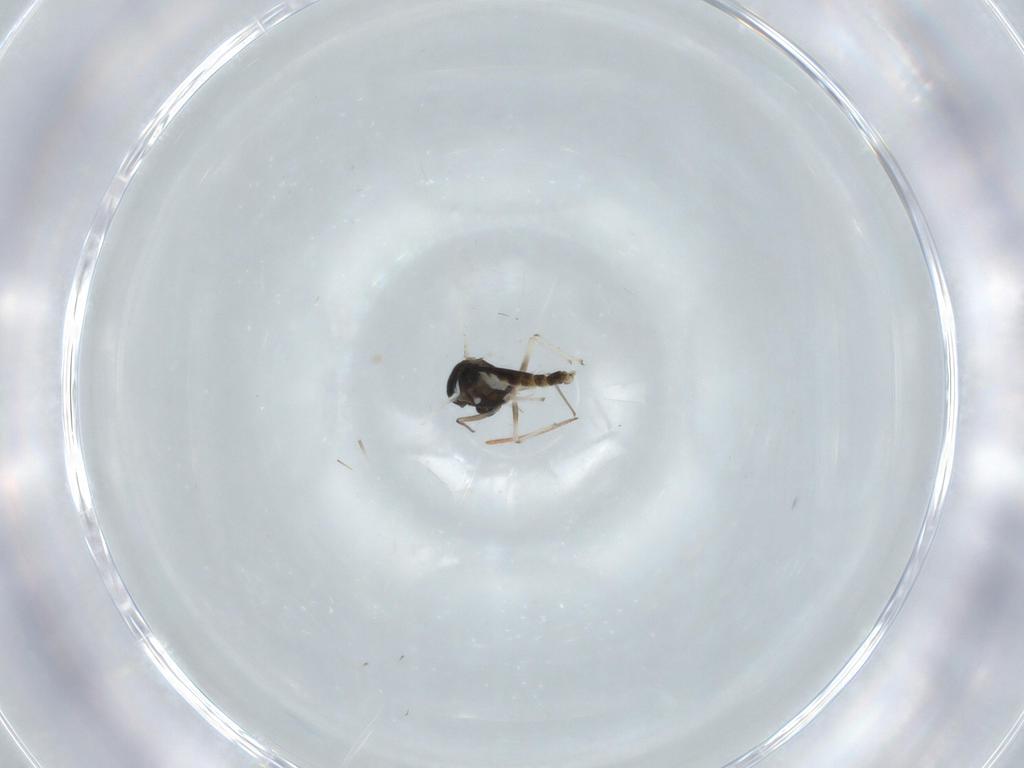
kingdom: Animalia
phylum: Arthropoda
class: Insecta
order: Diptera
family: Chironomidae
